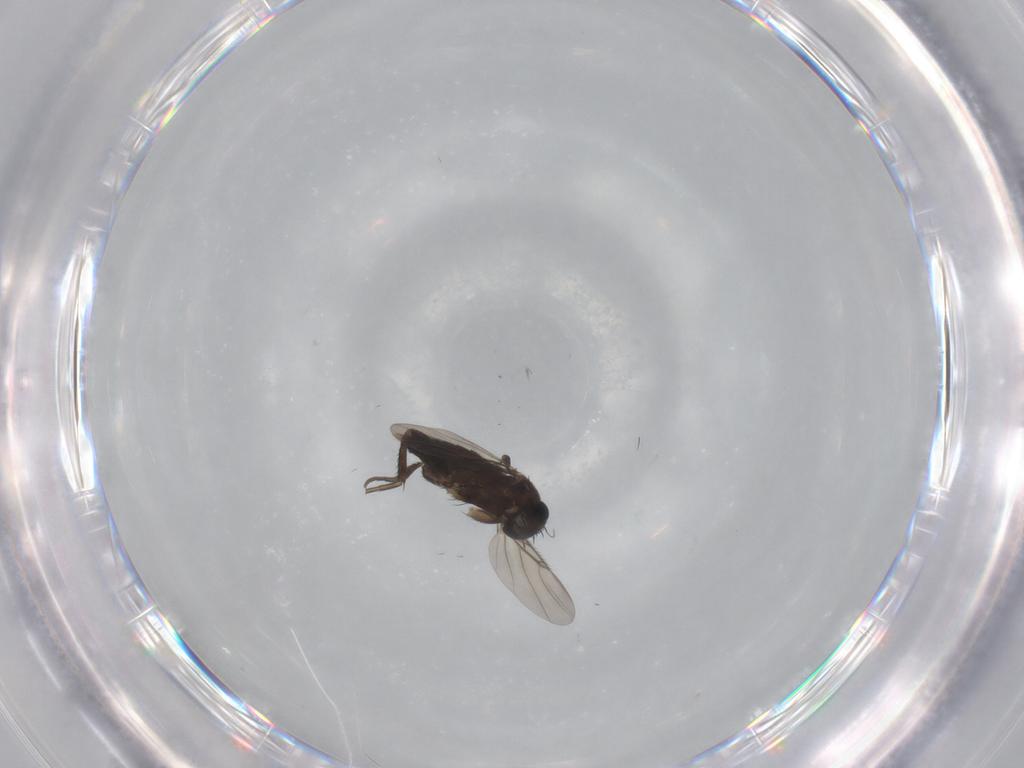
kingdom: Animalia
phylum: Arthropoda
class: Insecta
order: Diptera
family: Phoridae
